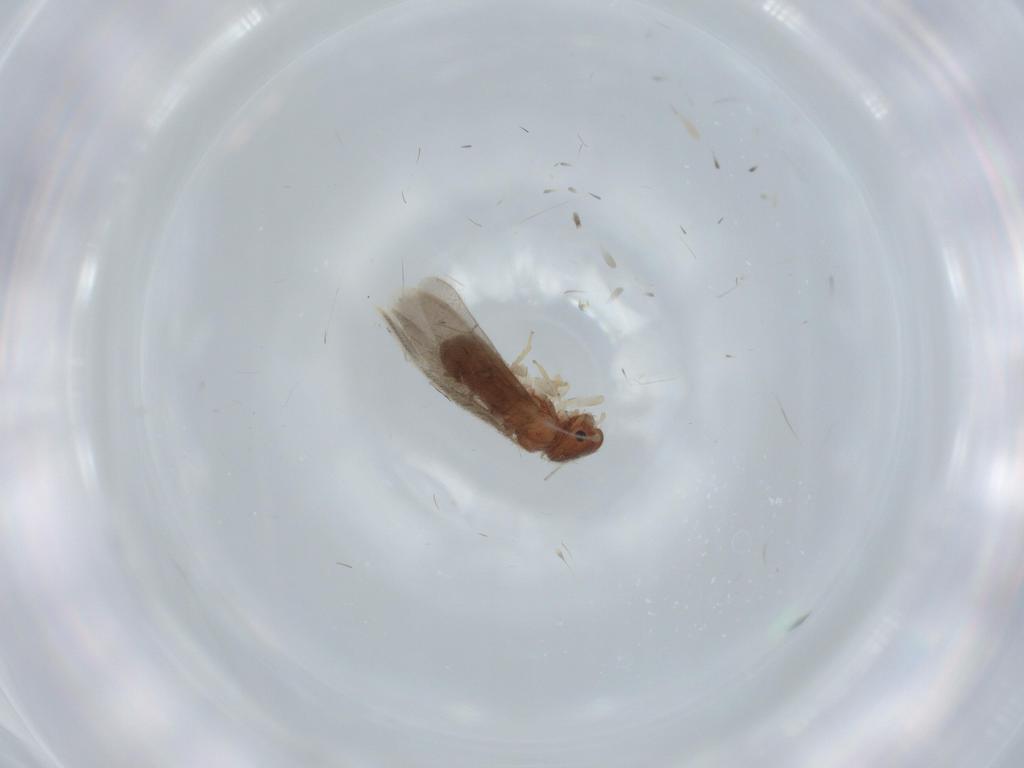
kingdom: Animalia
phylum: Arthropoda
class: Insecta
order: Psocodea
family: Archipsocidae
